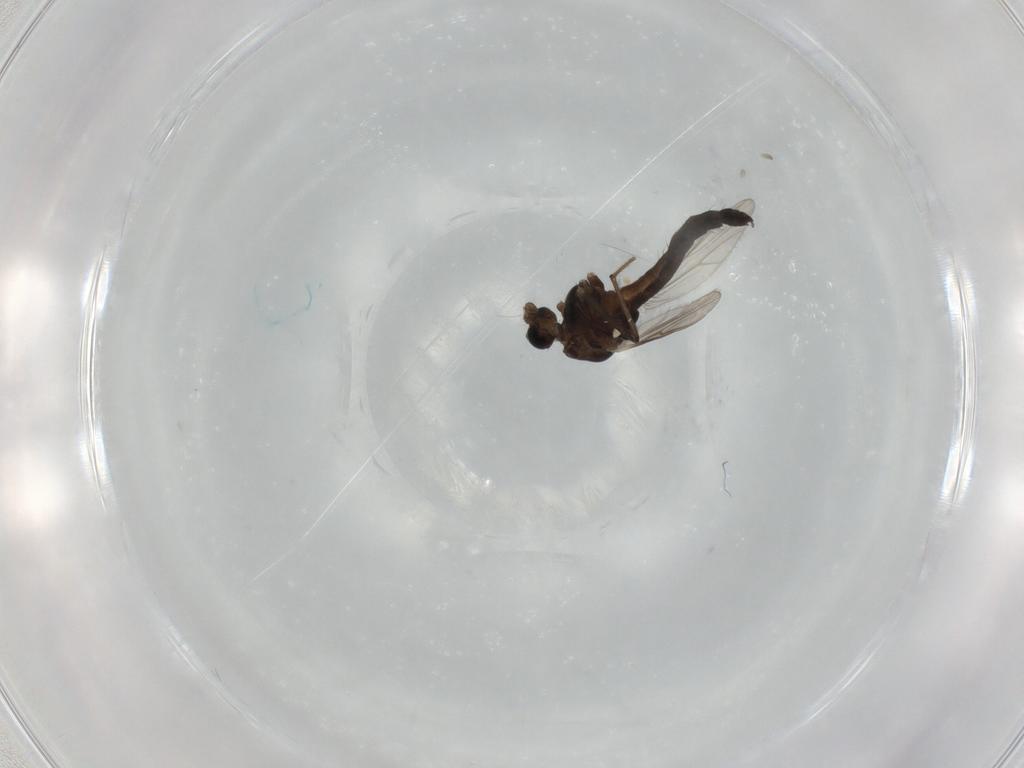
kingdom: Animalia
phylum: Arthropoda
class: Insecta
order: Diptera
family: Chironomidae
